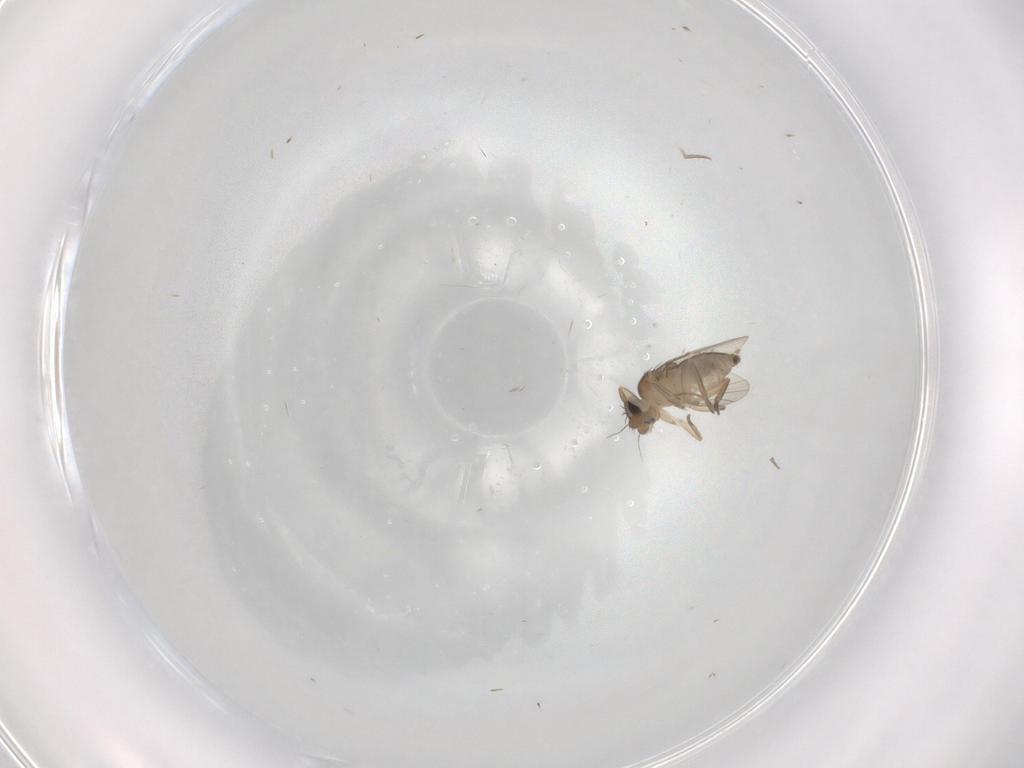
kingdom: Animalia
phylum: Arthropoda
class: Insecta
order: Diptera
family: Phoridae
